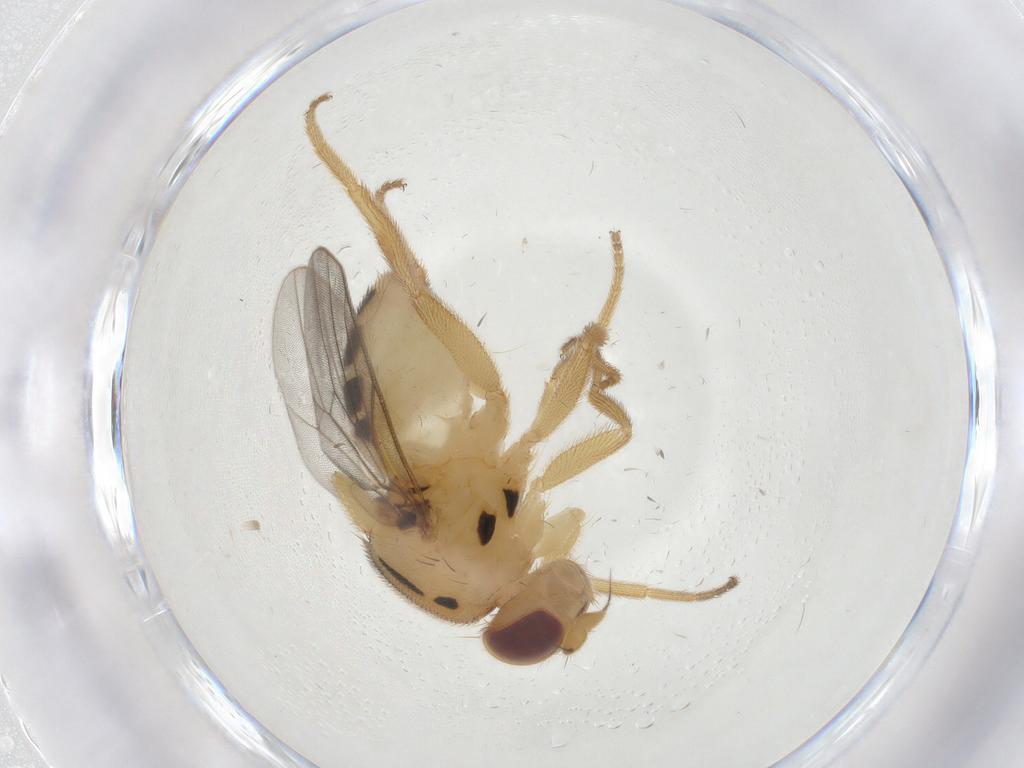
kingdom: Animalia
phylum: Arthropoda
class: Insecta
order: Diptera
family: Chloropidae
